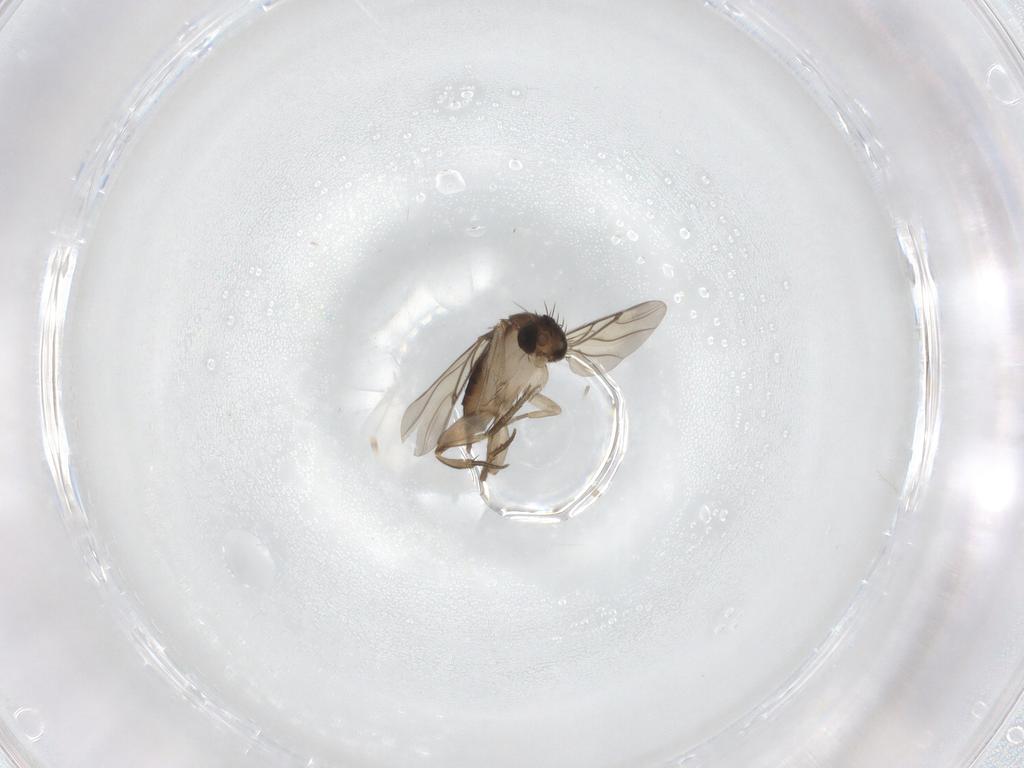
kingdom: Animalia
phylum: Arthropoda
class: Insecta
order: Diptera
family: Phoridae
